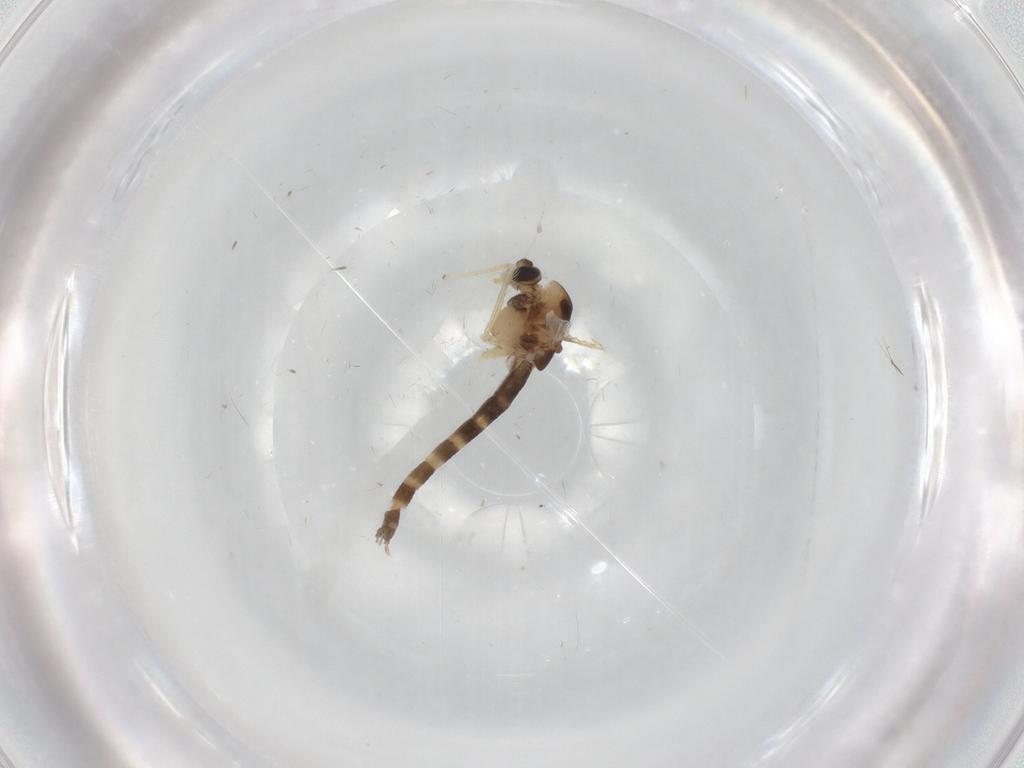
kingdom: Animalia
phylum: Arthropoda
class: Insecta
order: Diptera
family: Chironomidae
